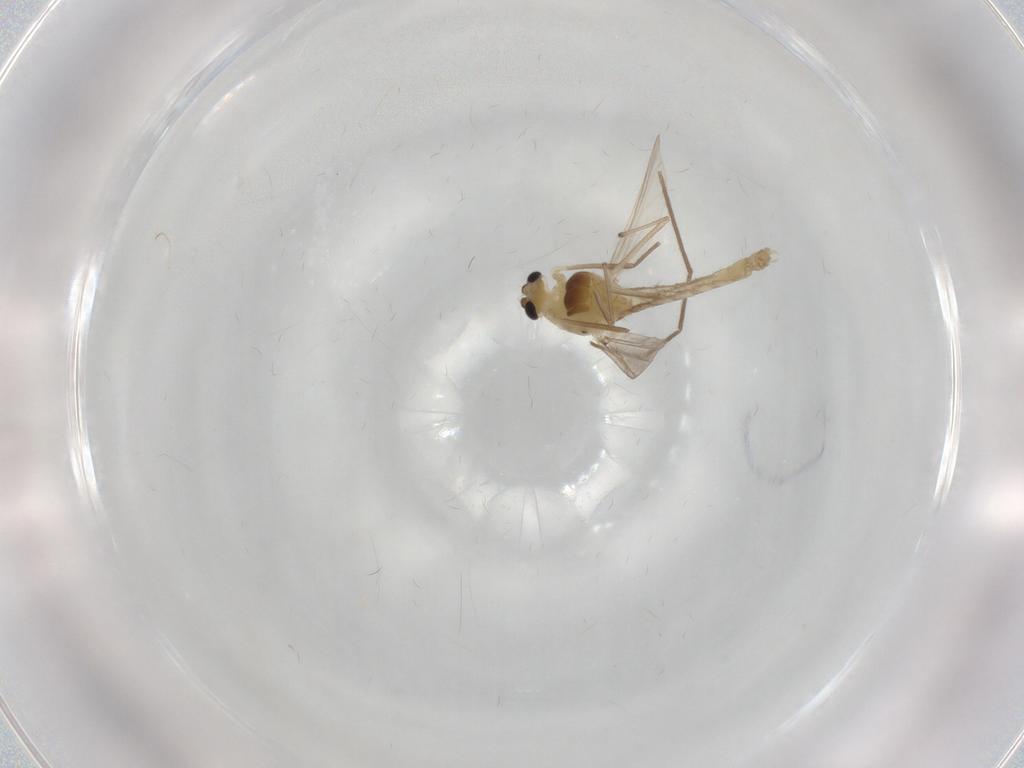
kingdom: Animalia
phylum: Arthropoda
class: Insecta
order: Diptera
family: Chironomidae
